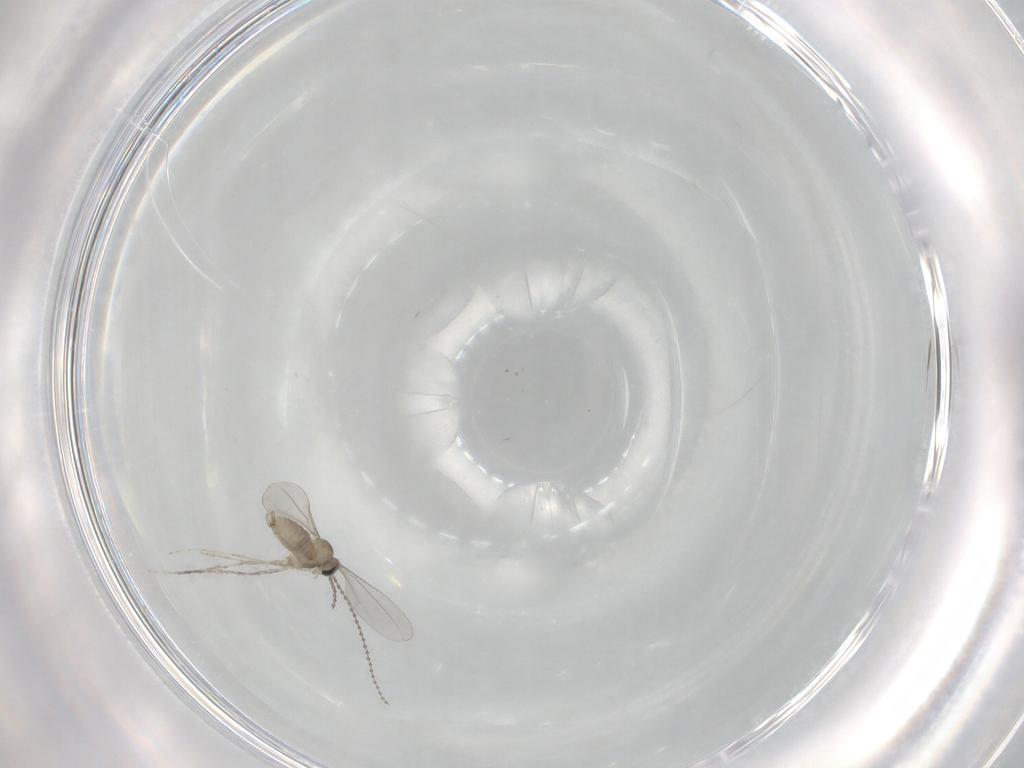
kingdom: Animalia
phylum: Arthropoda
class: Insecta
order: Diptera
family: Cecidomyiidae
